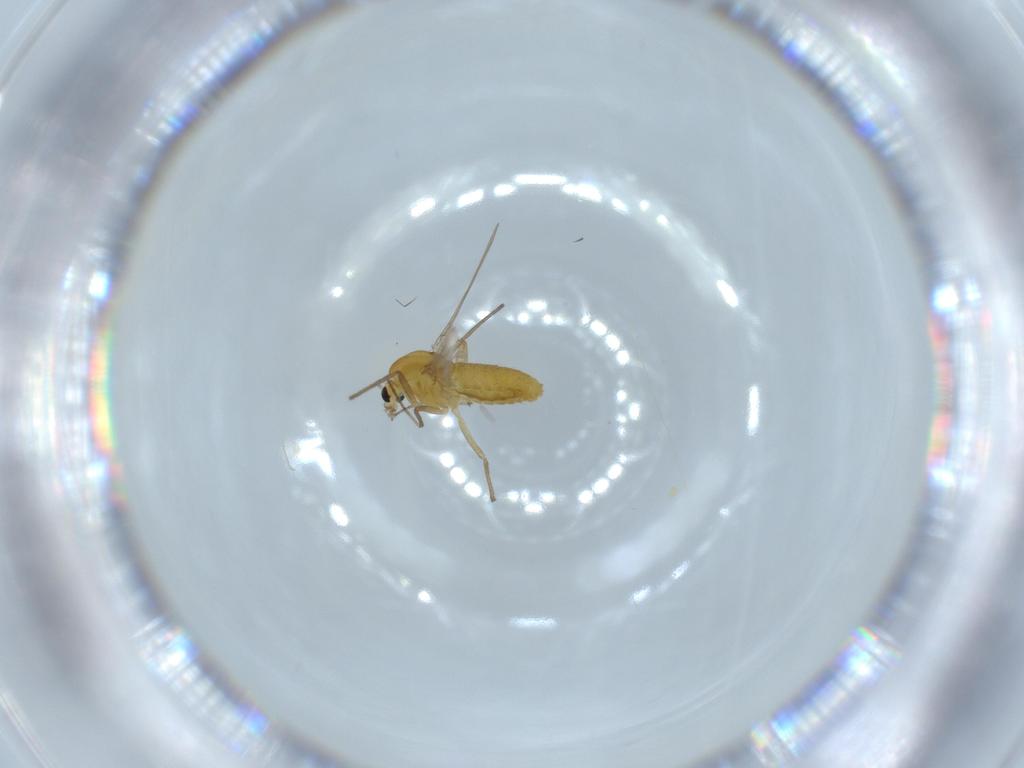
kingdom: Animalia
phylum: Arthropoda
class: Insecta
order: Diptera
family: Chironomidae
